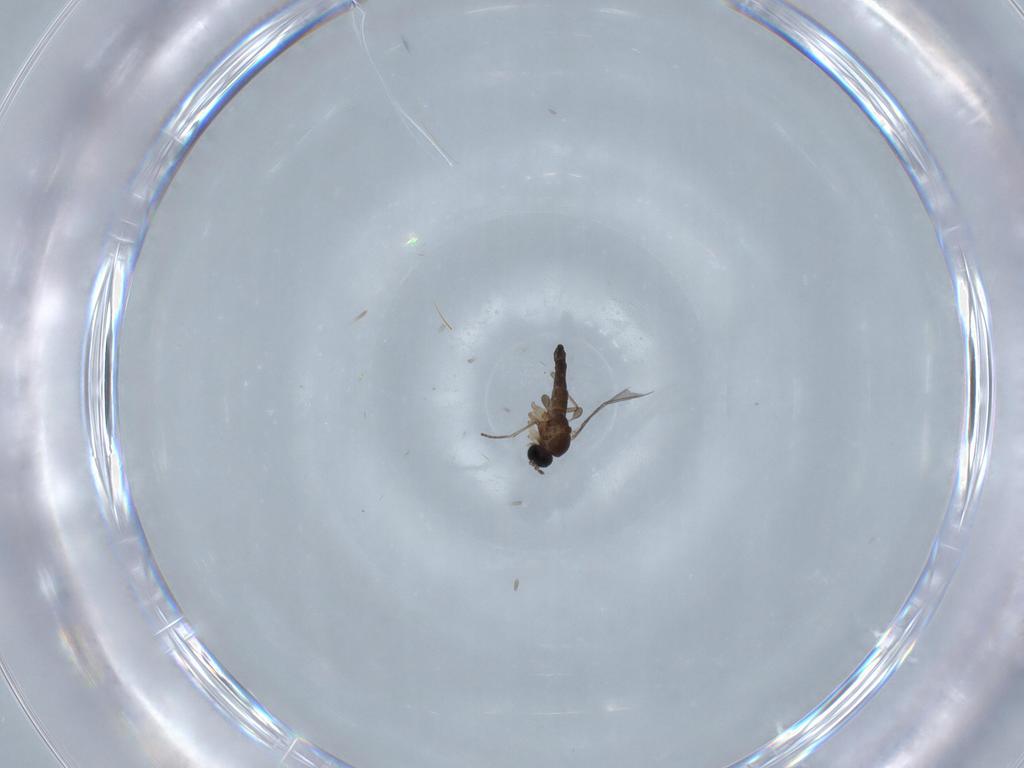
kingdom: Animalia
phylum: Arthropoda
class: Insecta
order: Diptera
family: Sciaridae
